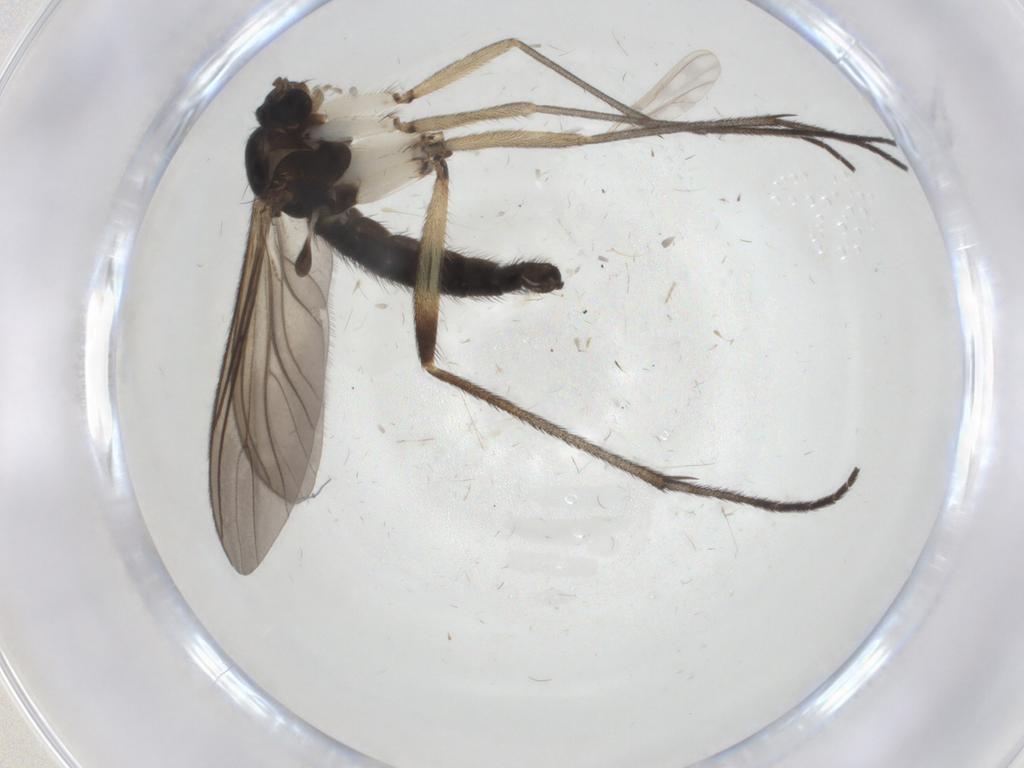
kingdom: Animalia
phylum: Arthropoda
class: Insecta
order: Diptera
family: Sciaridae
